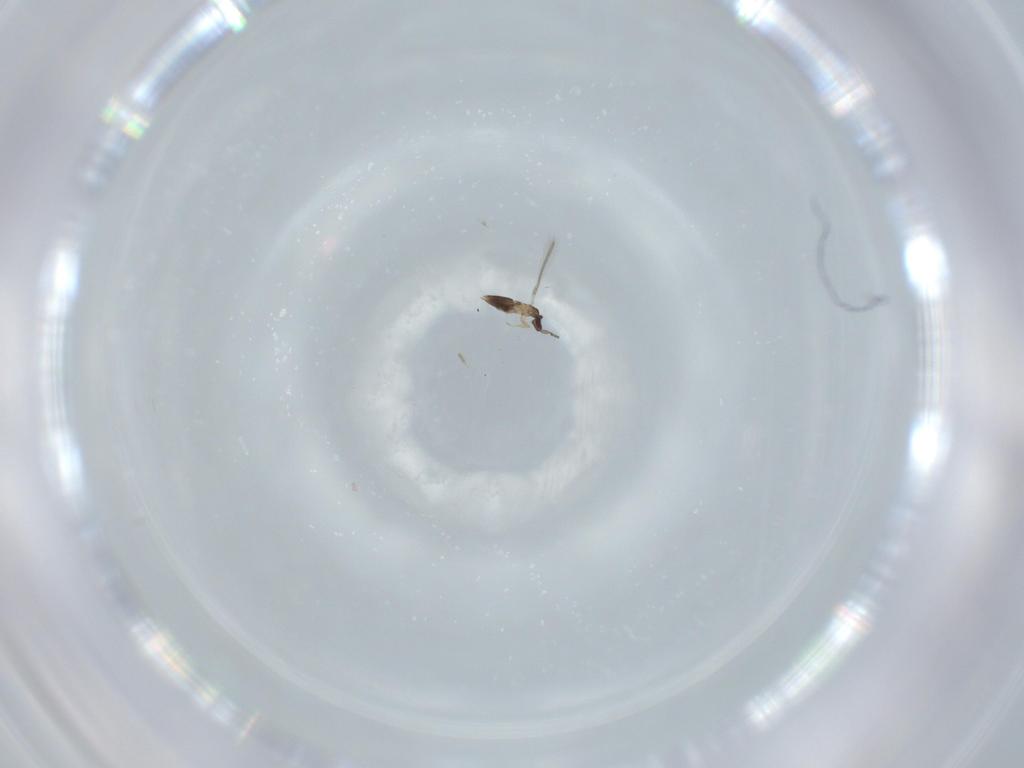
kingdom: Animalia
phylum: Arthropoda
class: Insecta
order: Hymenoptera
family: Mymaridae
